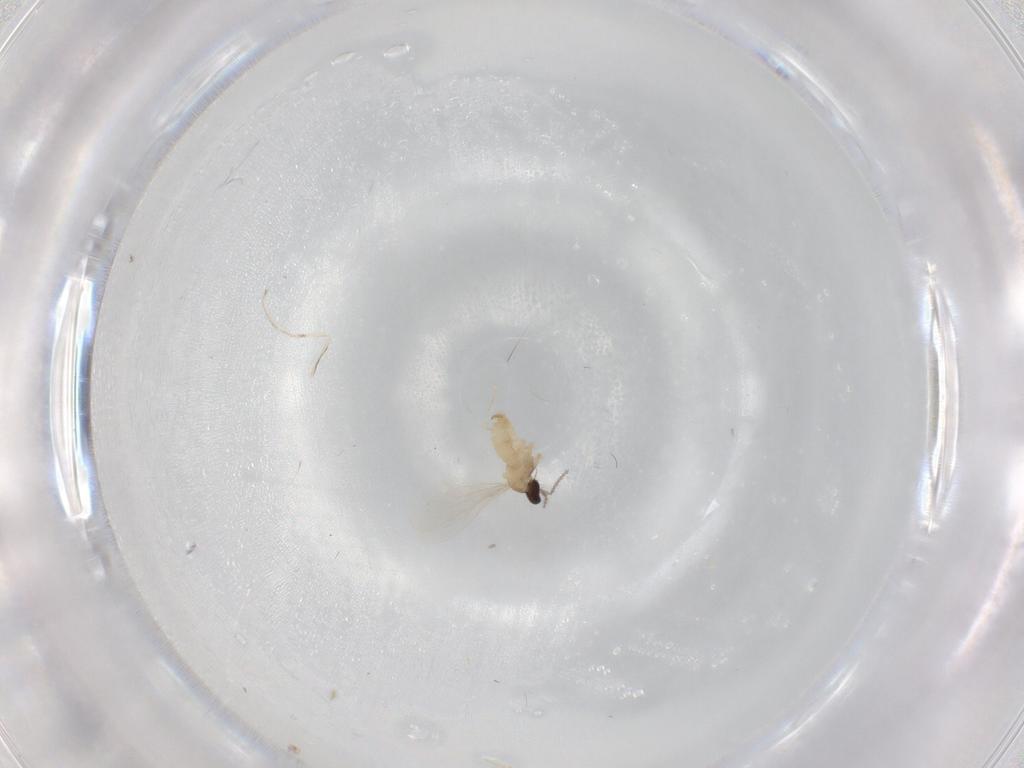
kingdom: Animalia
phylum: Arthropoda
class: Insecta
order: Diptera
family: Cecidomyiidae
